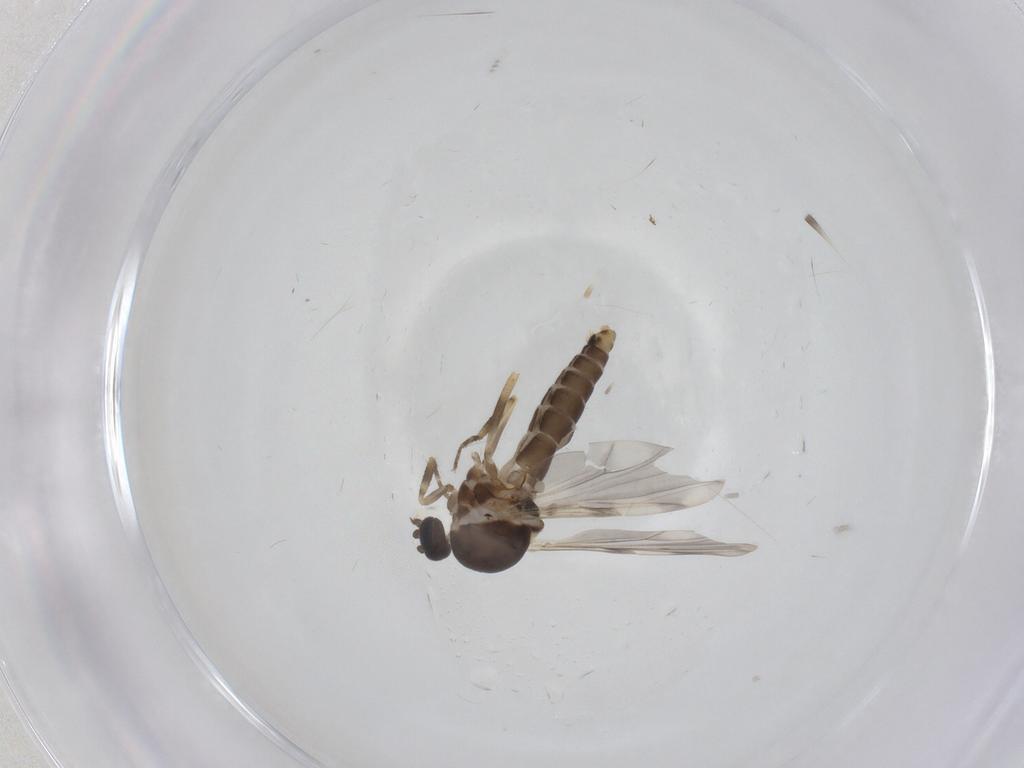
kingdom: Animalia
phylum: Arthropoda
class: Insecta
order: Diptera
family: Ceratopogonidae
